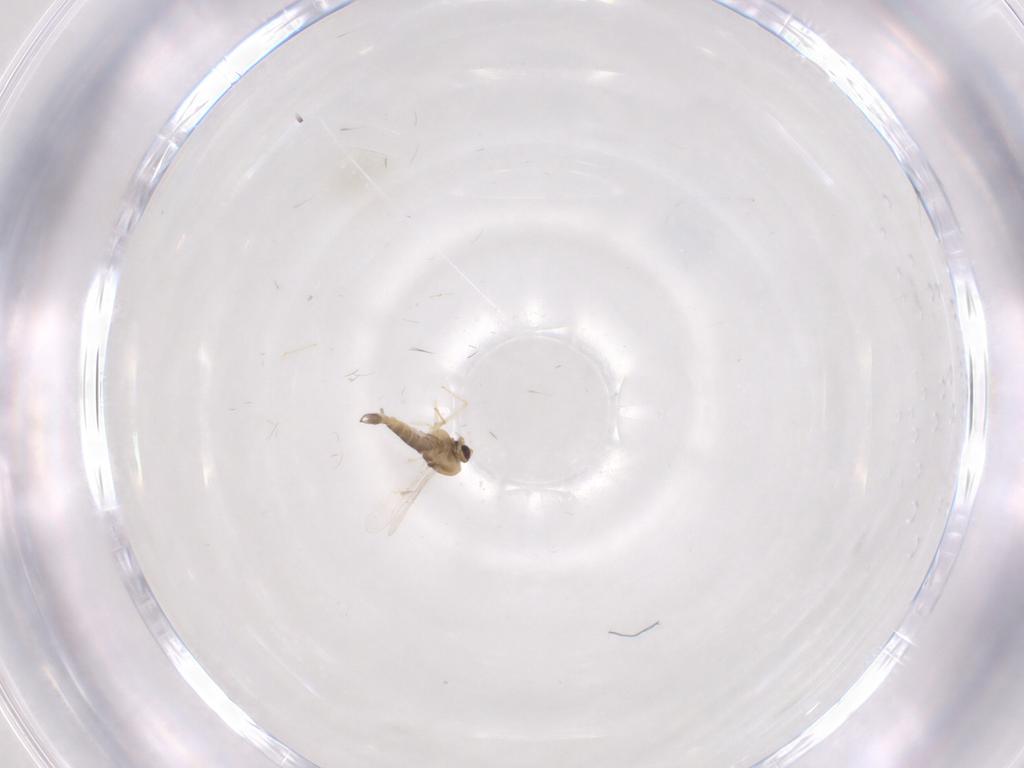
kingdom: Animalia
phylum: Arthropoda
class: Insecta
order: Diptera
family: Chironomidae
